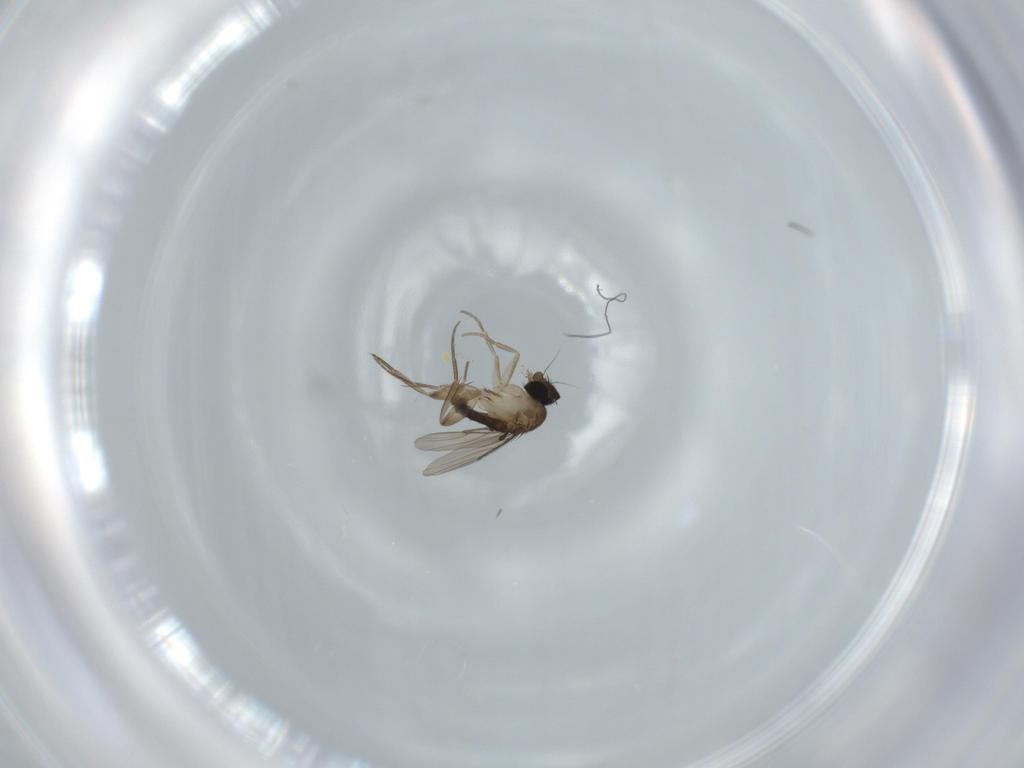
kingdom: Animalia
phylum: Arthropoda
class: Insecta
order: Diptera
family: Phoridae
